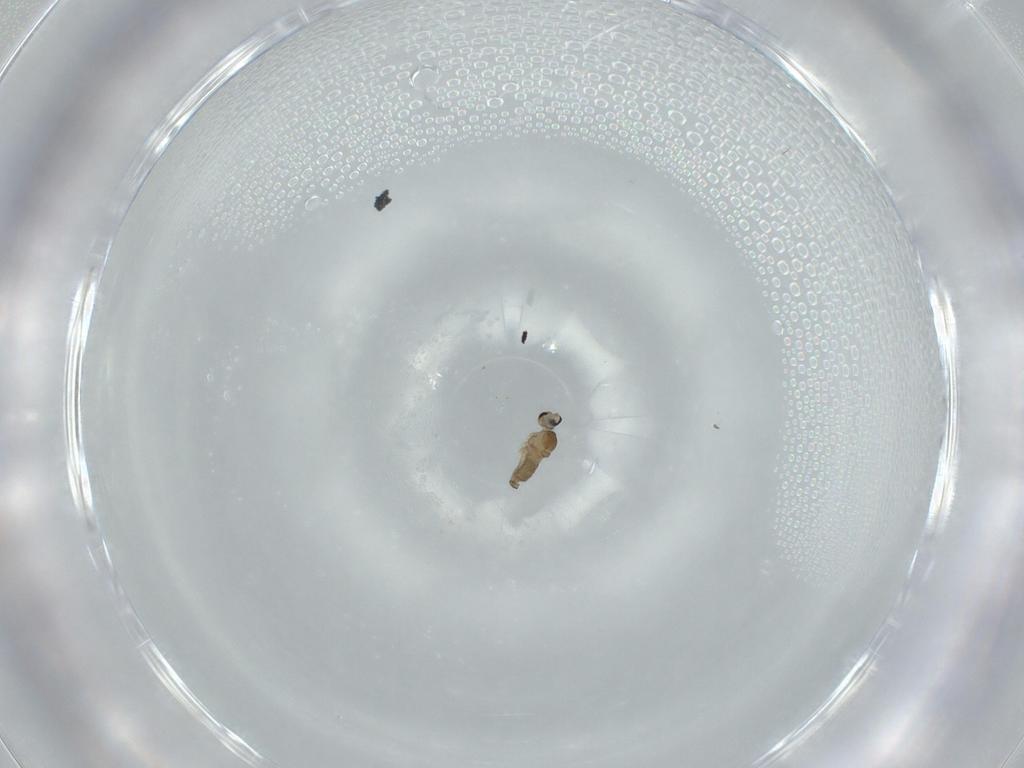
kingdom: Animalia
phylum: Arthropoda
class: Insecta
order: Diptera
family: Cecidomyiidae
